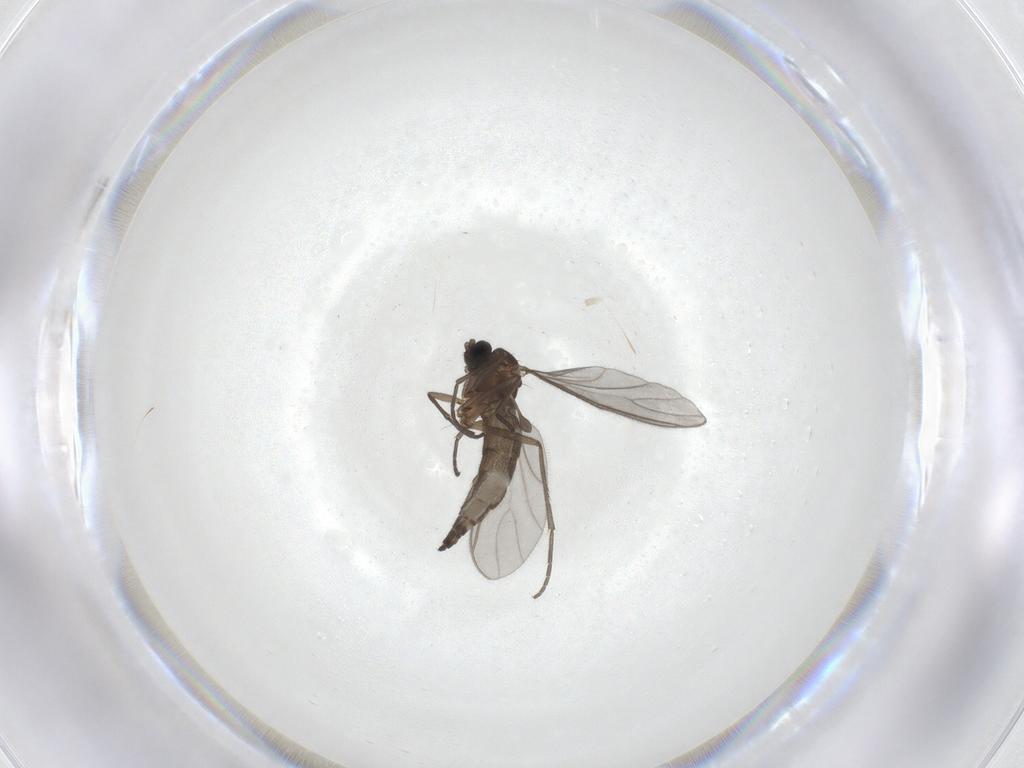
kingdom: Animalia
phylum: Arthropoda
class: Insecta
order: Diptera
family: Sciaridae
